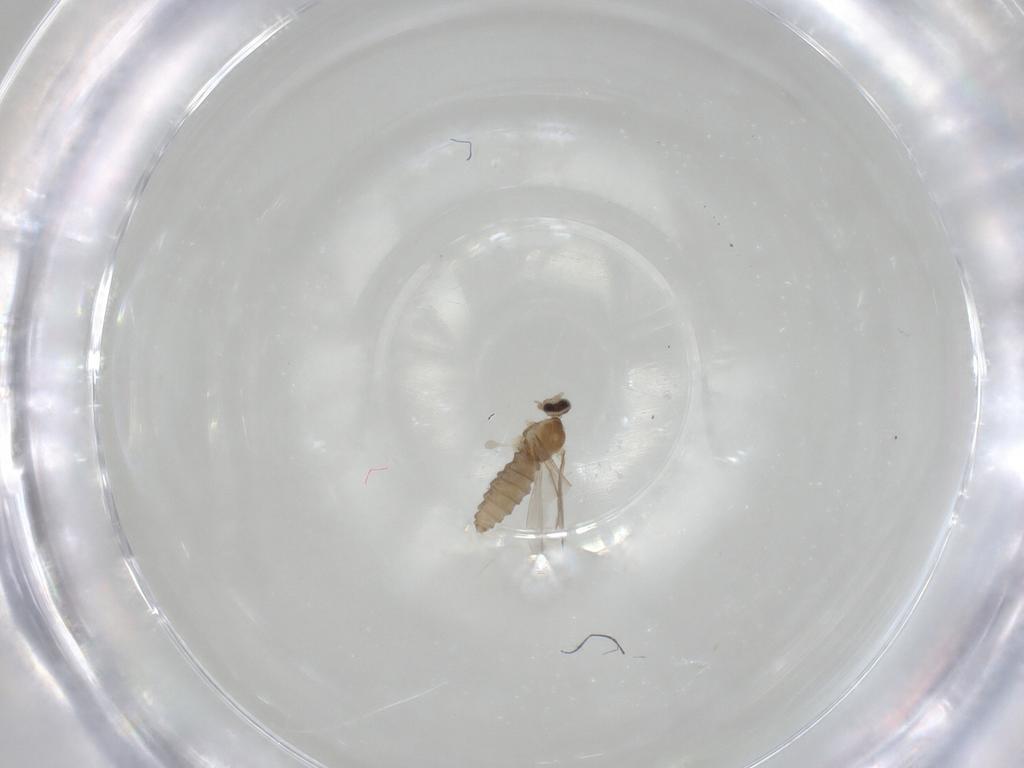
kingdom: Animalia
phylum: Arthropoda
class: Insecta
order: Diptera
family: Cecidomyiidae
